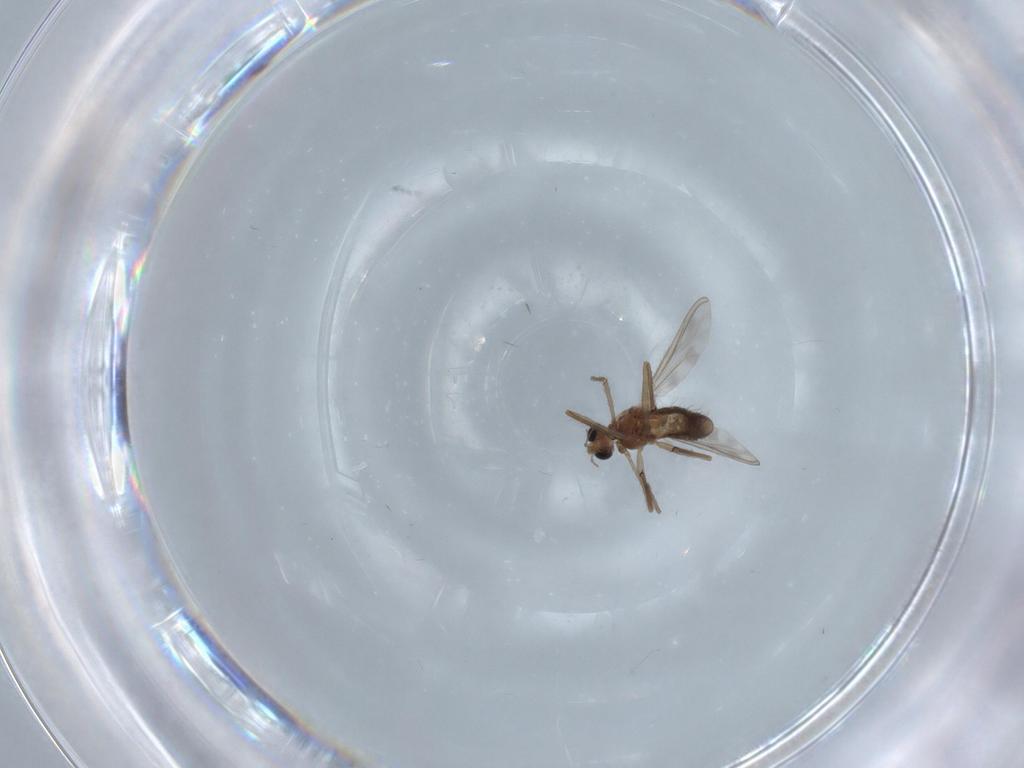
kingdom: Animalia
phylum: Arthropoda
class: Insecta
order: Diptera
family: Chironomidae
